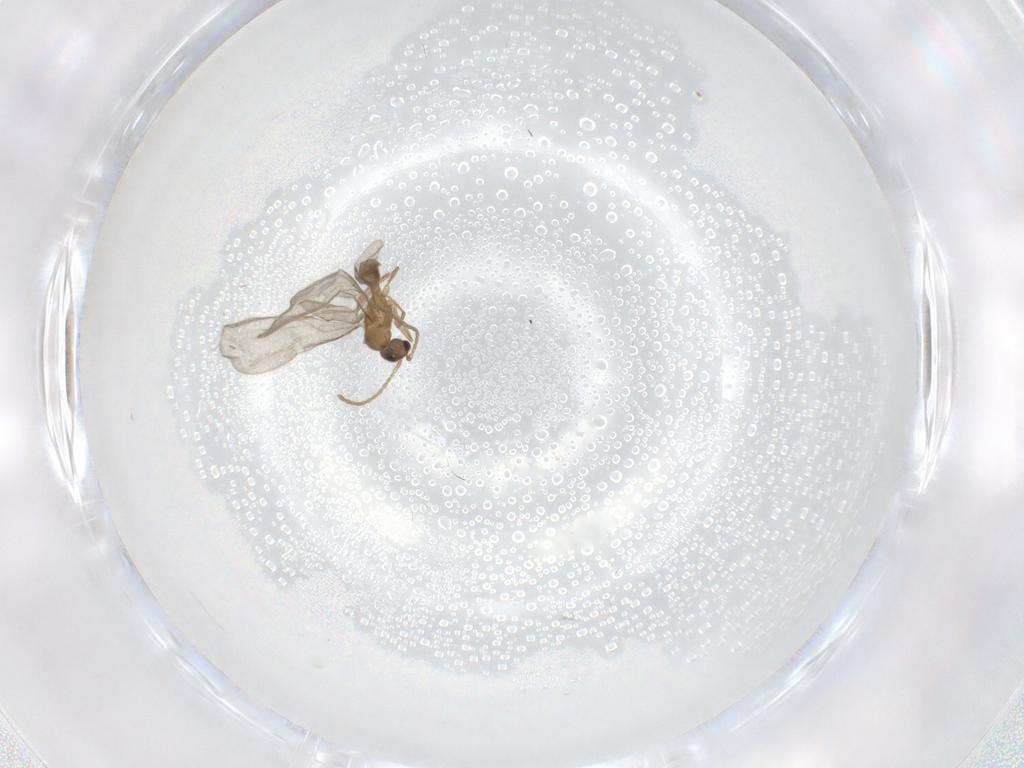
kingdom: Animalia
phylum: Arthropoda
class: Insecta
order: Hymenoptera
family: Formicidae
